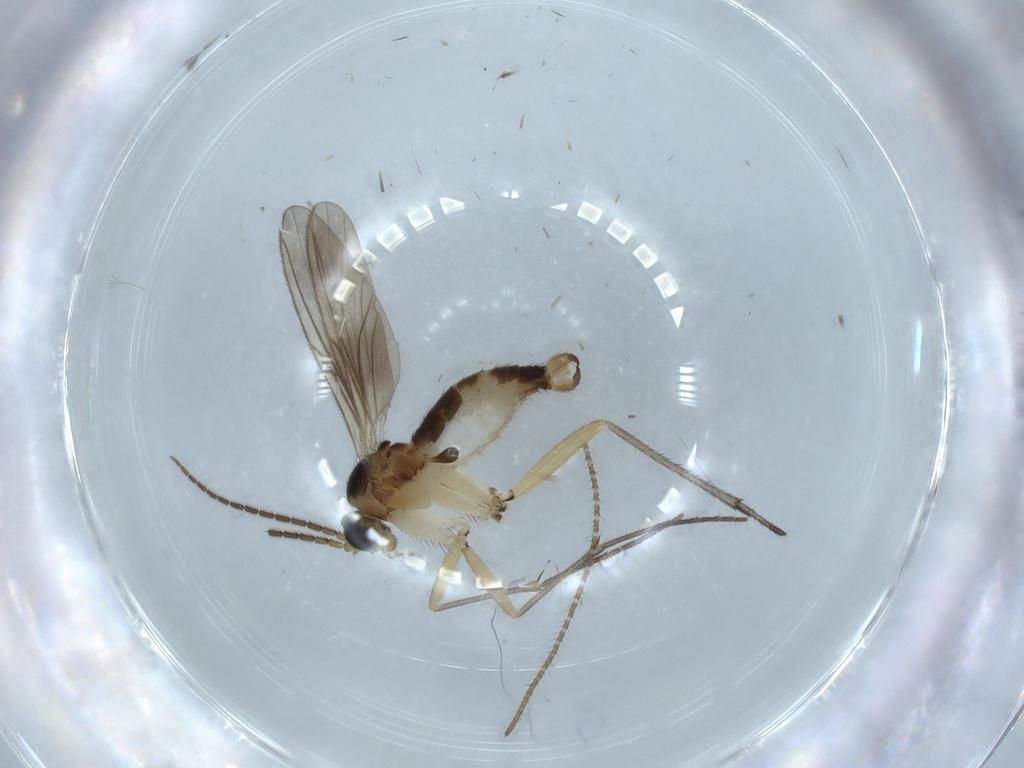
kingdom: Animalia
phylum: Arthropoda
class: Insecta
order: Diptera
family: Sciaridae
